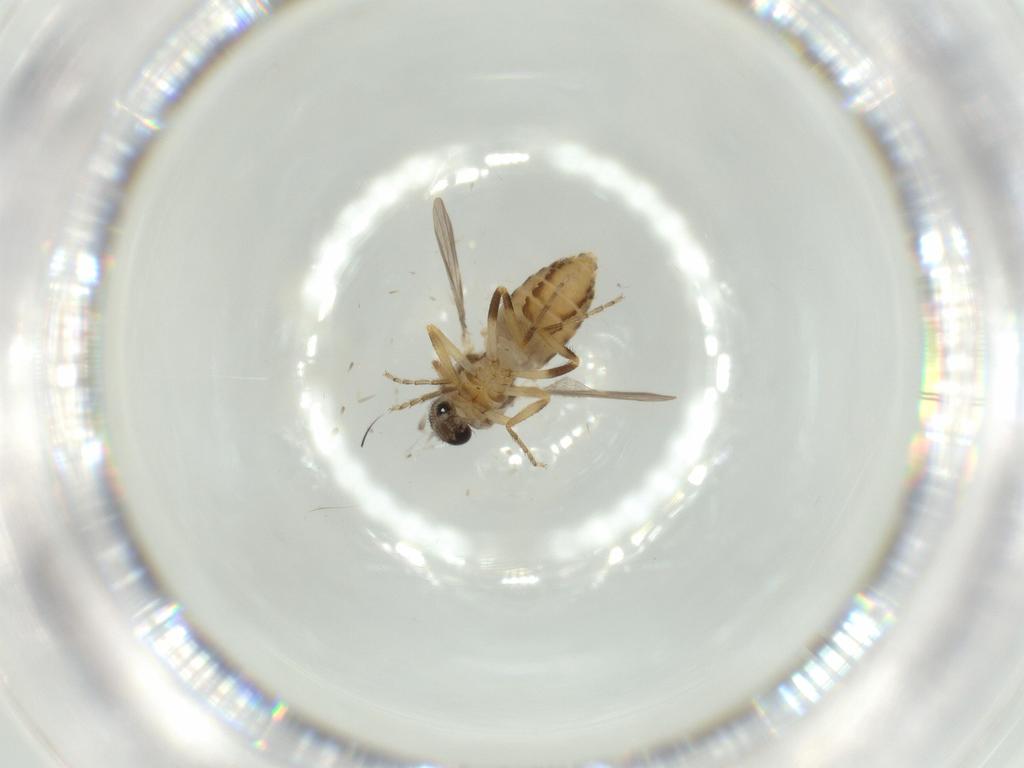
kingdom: Animalia
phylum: Arthropoda
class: Insecta
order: Diptera
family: Ceratopogonidae
